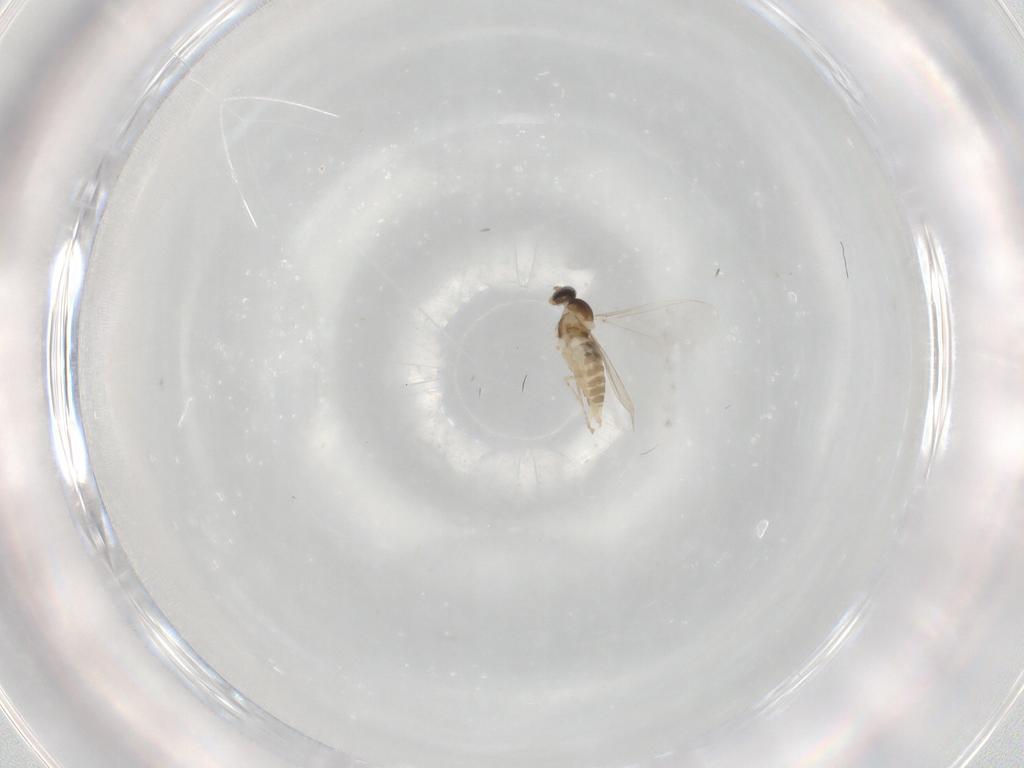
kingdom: Animalia
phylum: Arthropoda
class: Insecta
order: Diptera
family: Cecidomyiidae
